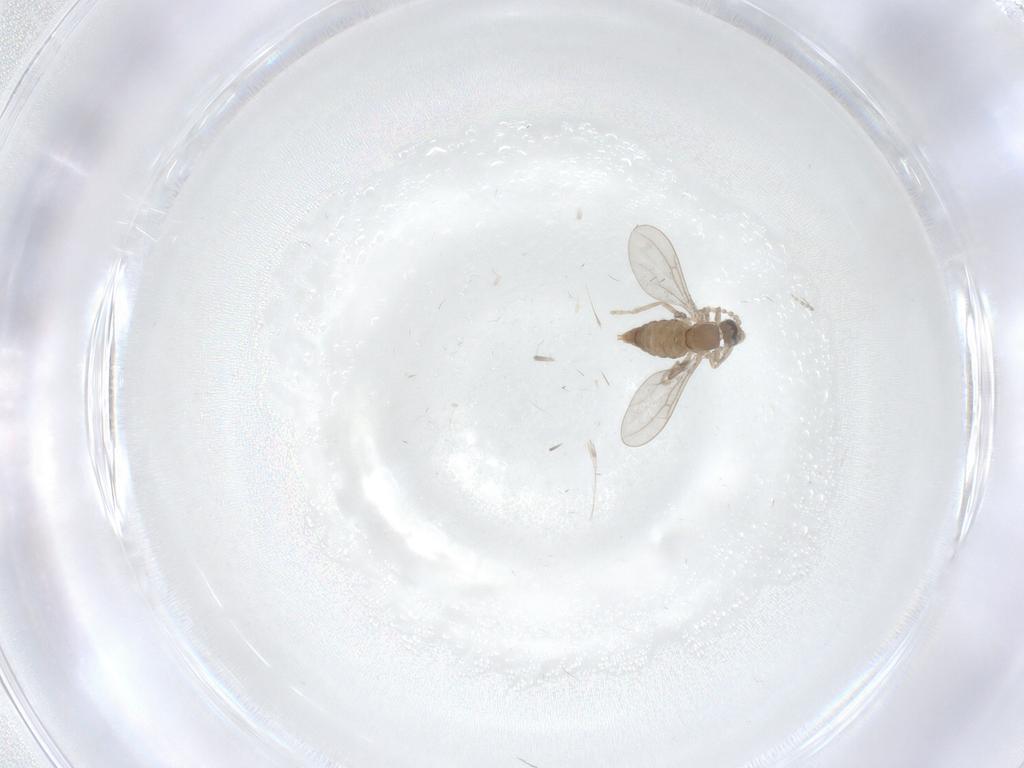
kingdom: Animalia
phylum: Arthropoda
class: Insecta
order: Diptera
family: Cecidomyiidae
